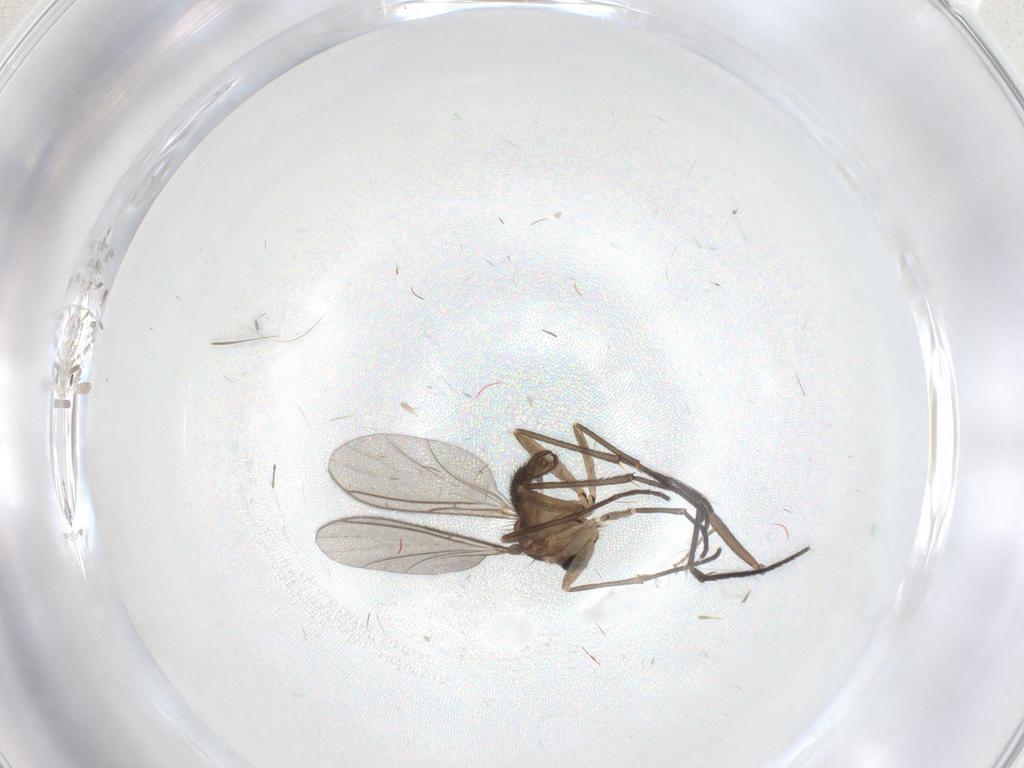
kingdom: Animalia
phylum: Arthropoda
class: Insecta
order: Diptera
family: Sciaridae
